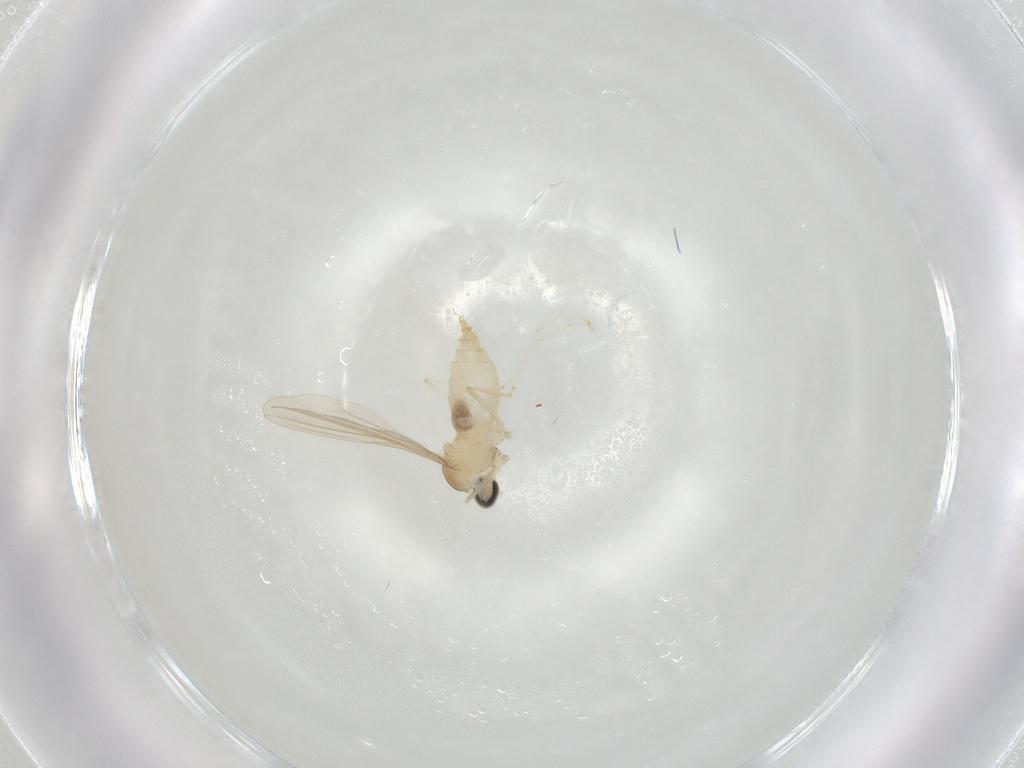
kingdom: Animalia
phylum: Arthropoda
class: Insecta
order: Diptera
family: Cecidomyiidae
